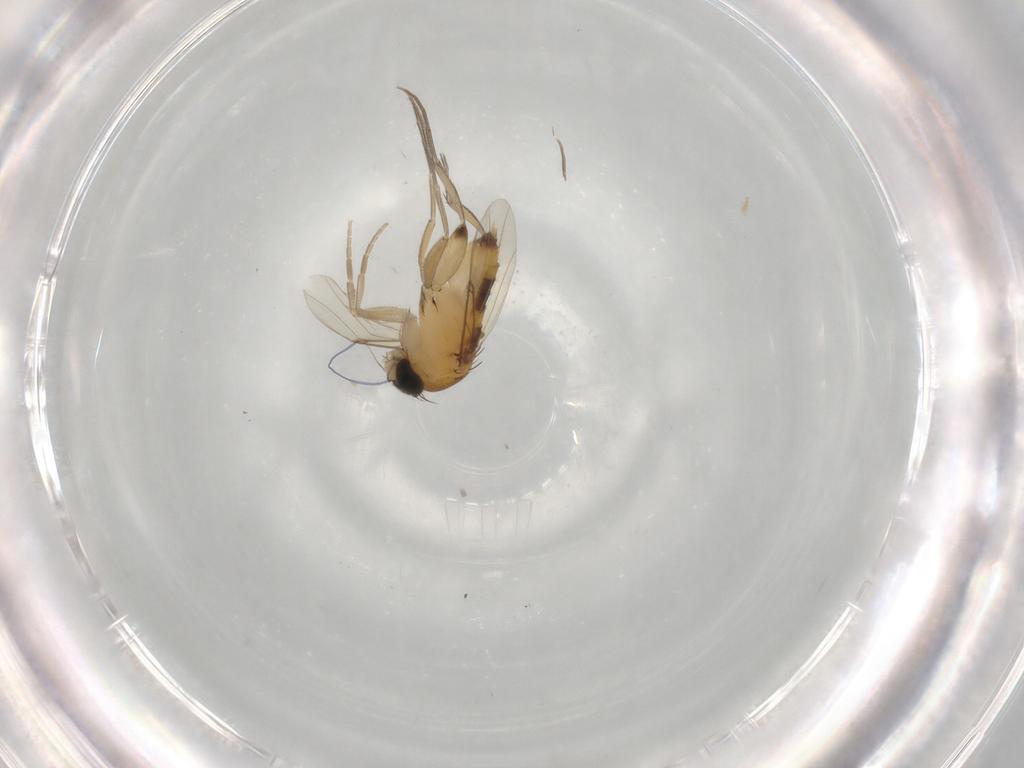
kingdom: Animalia
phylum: Arthropoda
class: Insecta
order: Diptera
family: Phoridae
